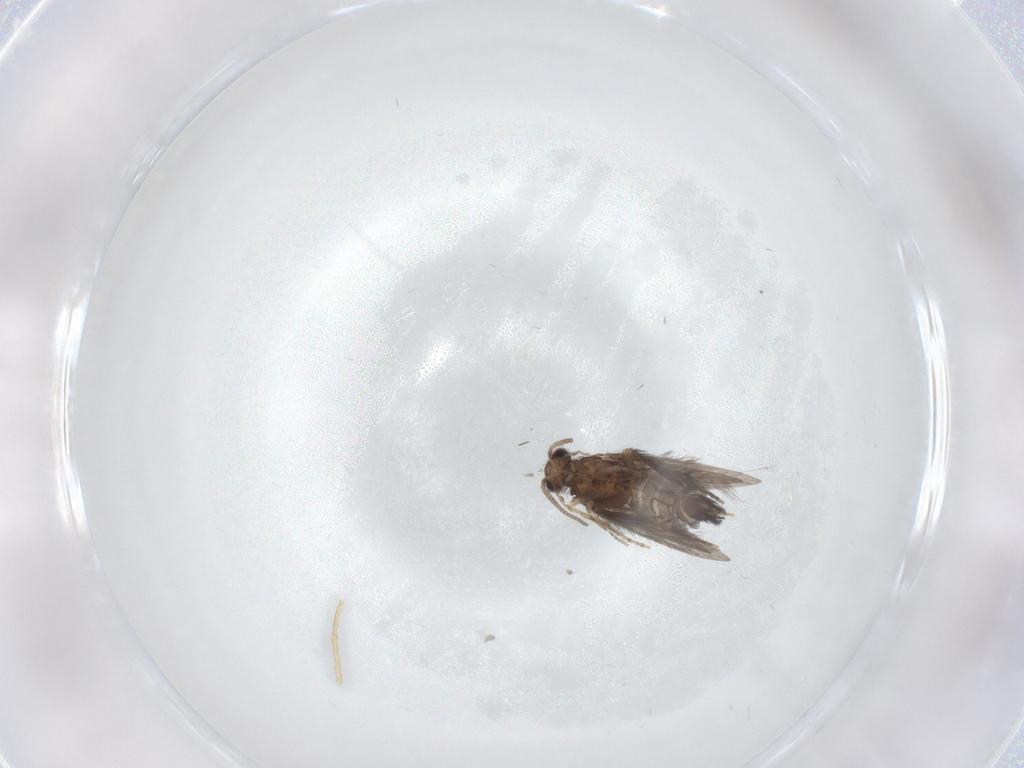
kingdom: Animalia
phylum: Arthropoda
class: Insecta
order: Trichoptera
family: Hydroptilidae
